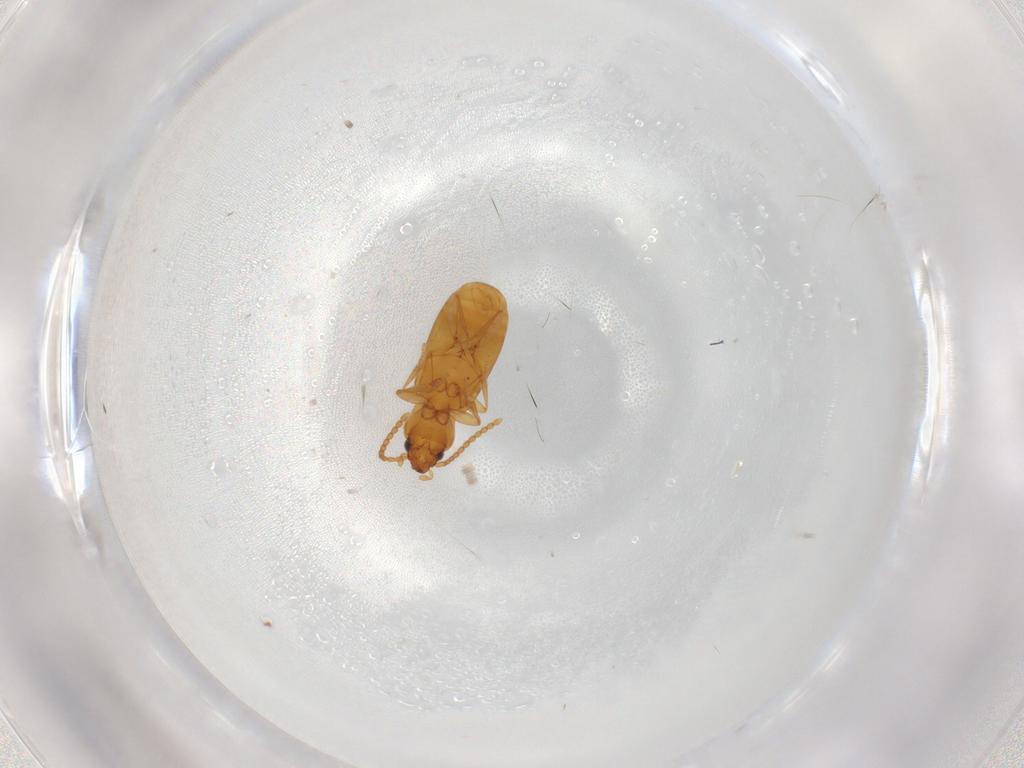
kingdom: Animalia
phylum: Arthropoda
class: Insecta
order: Coleoptera
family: Carabidae
